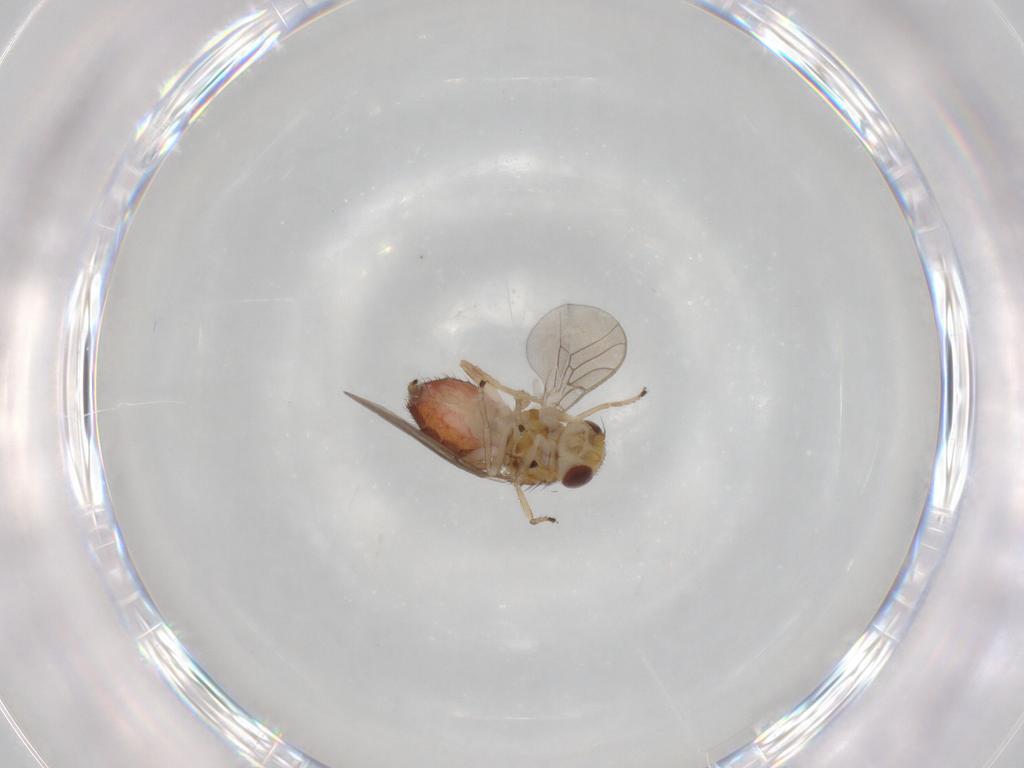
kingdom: Animalia
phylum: Arthropoda
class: Insecta
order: Diptera
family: Chloropidae
